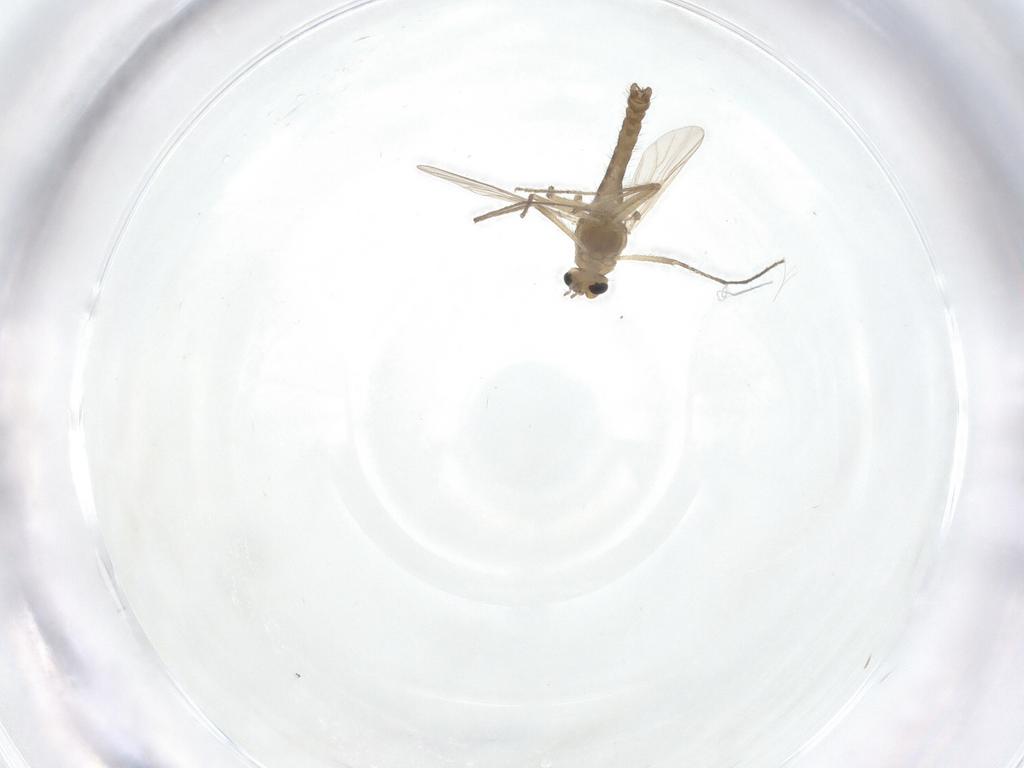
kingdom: Animalia
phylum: Arthropoda
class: Insecta
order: Diptera
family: Chironomidae
